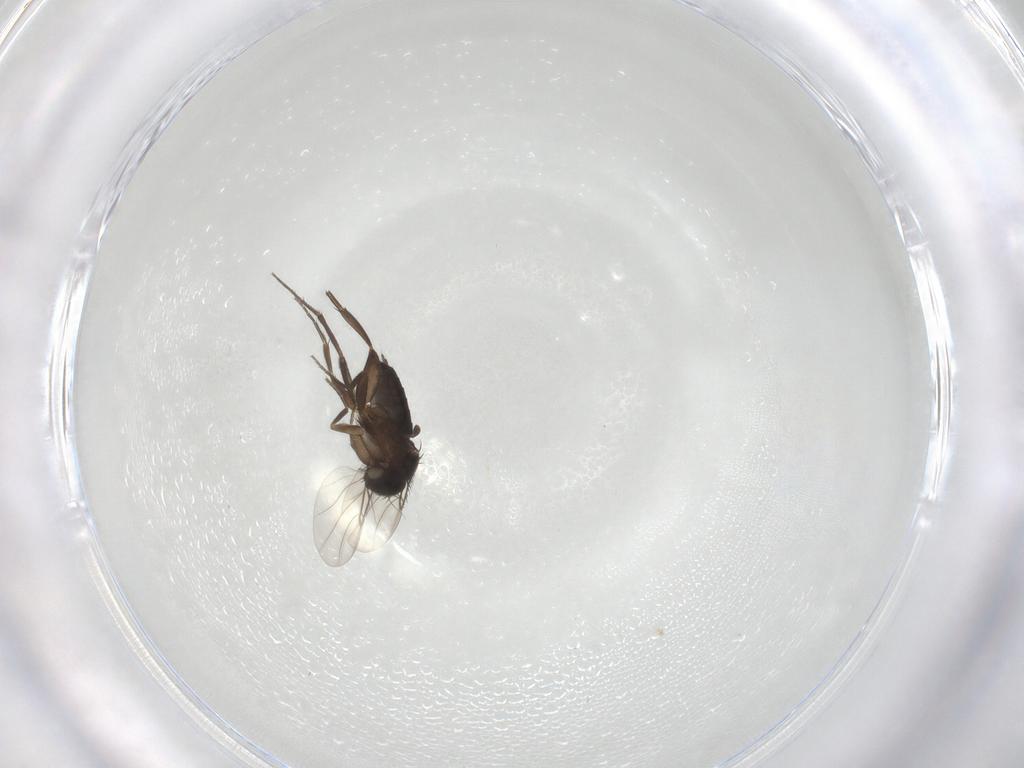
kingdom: Animalia
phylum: Arthropoda
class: Insecta
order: Diptera
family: Phoridae
